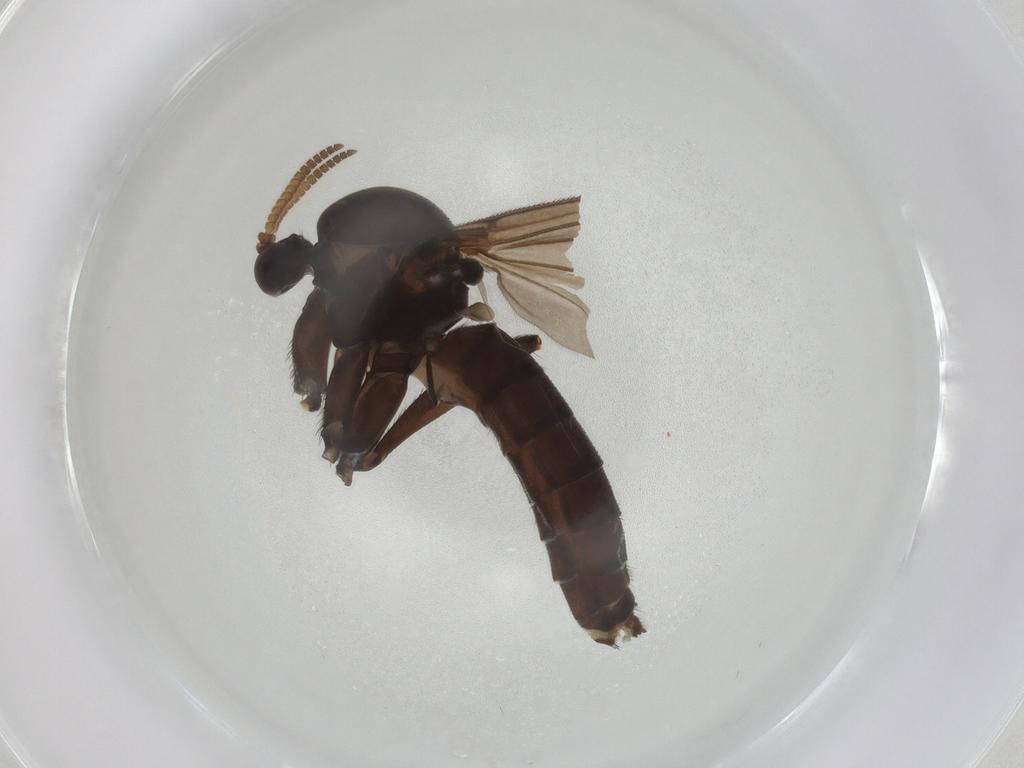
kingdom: Animalia
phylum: Arthropoda
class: Insecta
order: Diptera
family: Mycetophilidae
